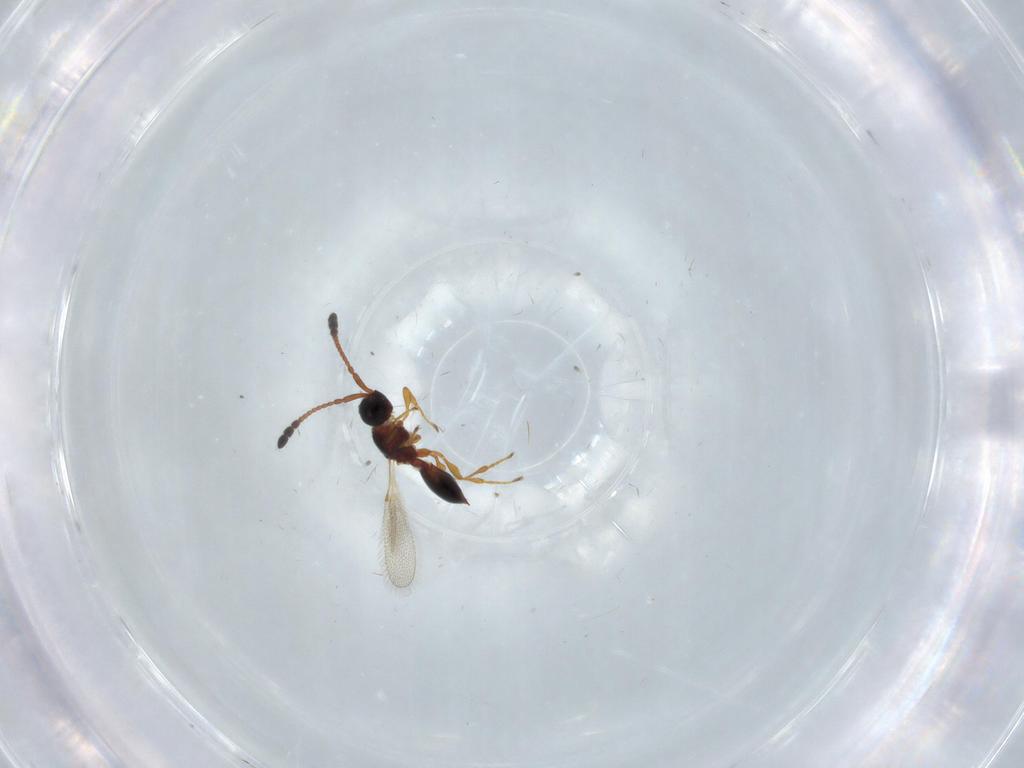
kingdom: Animalia
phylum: Arthropoda
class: Insecta
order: Hymenoptera
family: Diapriidae
